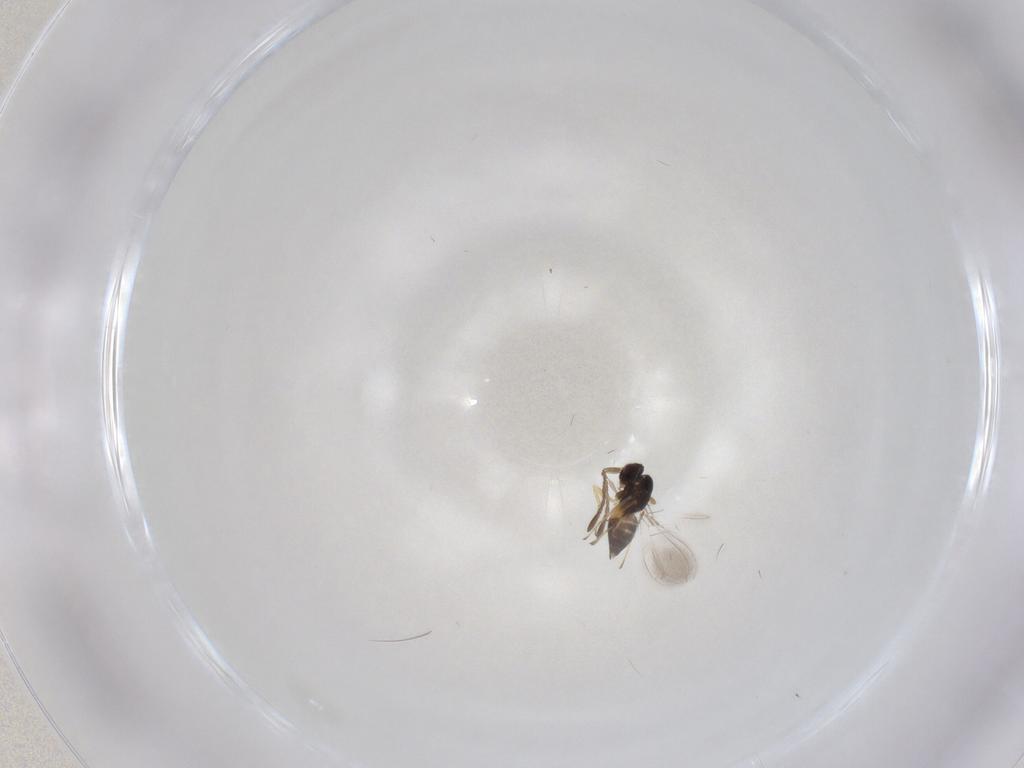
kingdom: Animalia
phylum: Arthropoda
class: Insecta
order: Hymenoptera
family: Mymaridae
